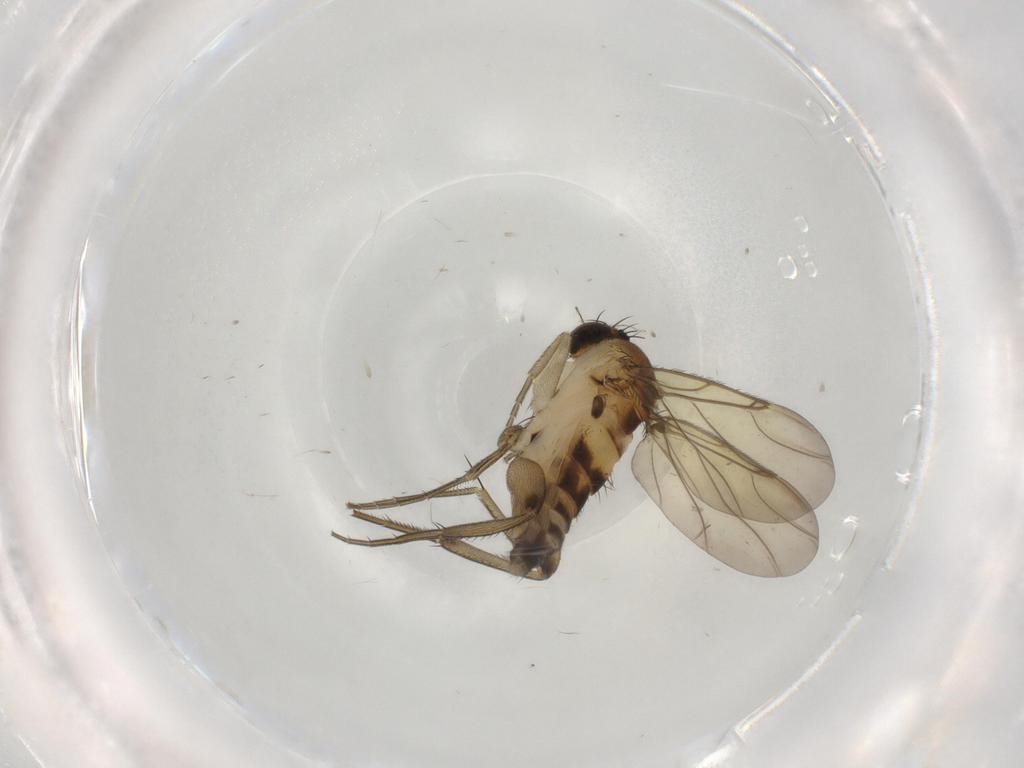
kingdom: Animalia
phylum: Arthropoda
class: Insecta
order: Diptera
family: Phoridae
